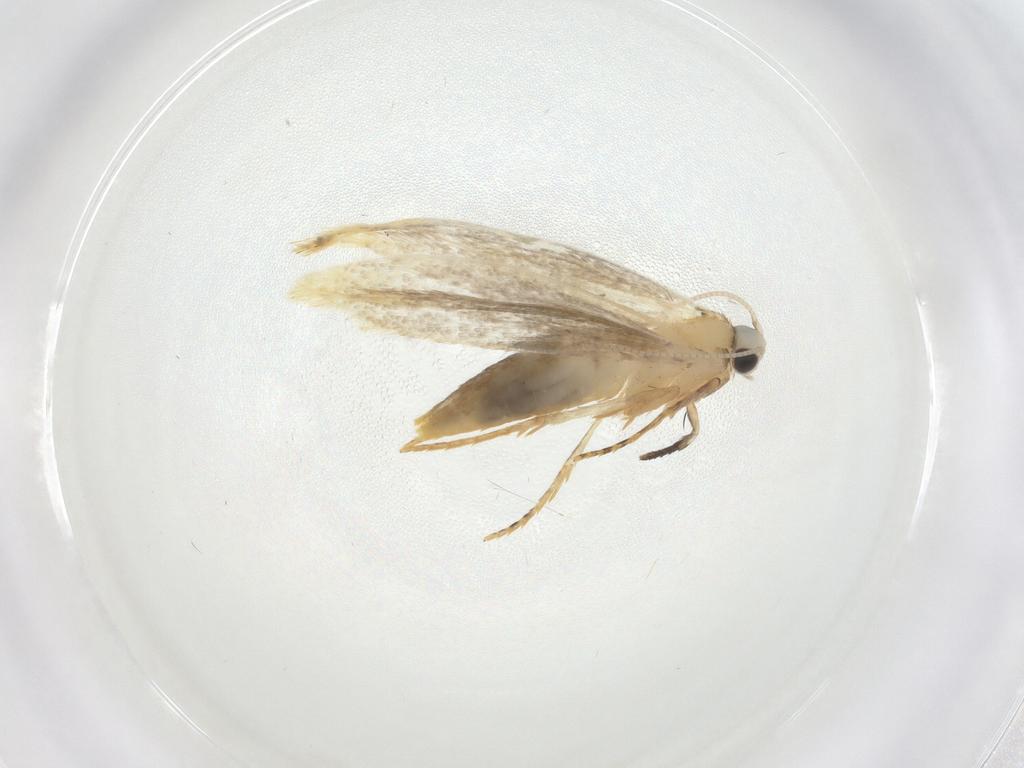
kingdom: Animalia
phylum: Arthropoda
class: Insecta
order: Lepidoptera
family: Tineidae
